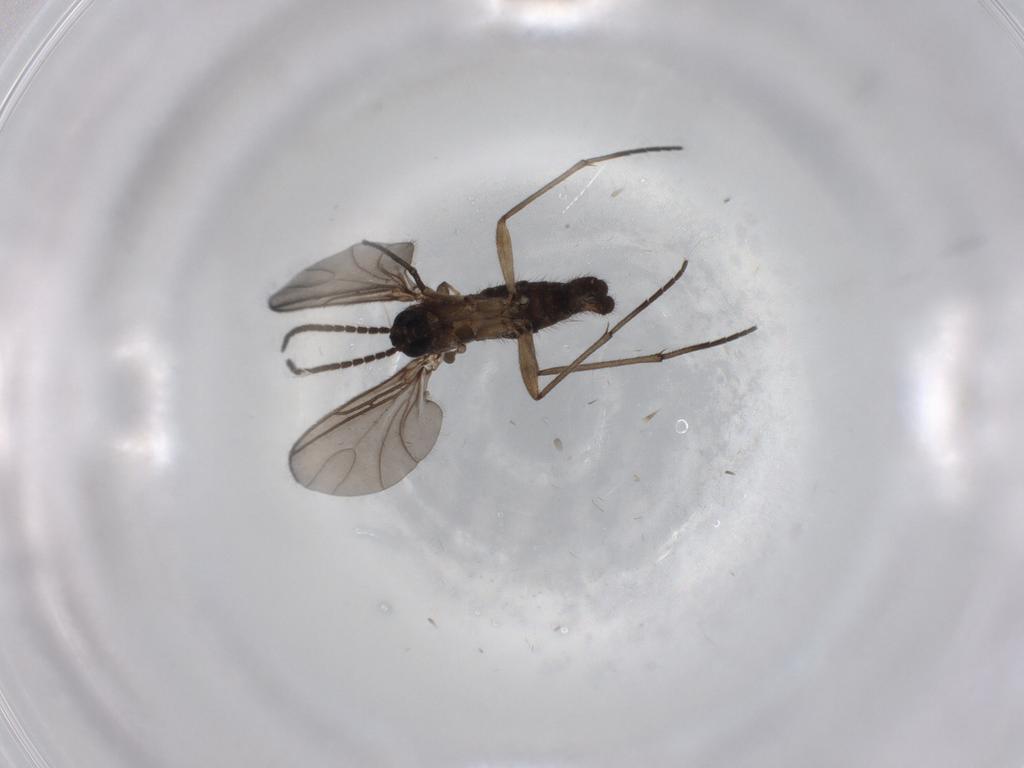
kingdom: Animalia
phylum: Arthropoda
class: Insecta
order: Diptera
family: Sciaridae
